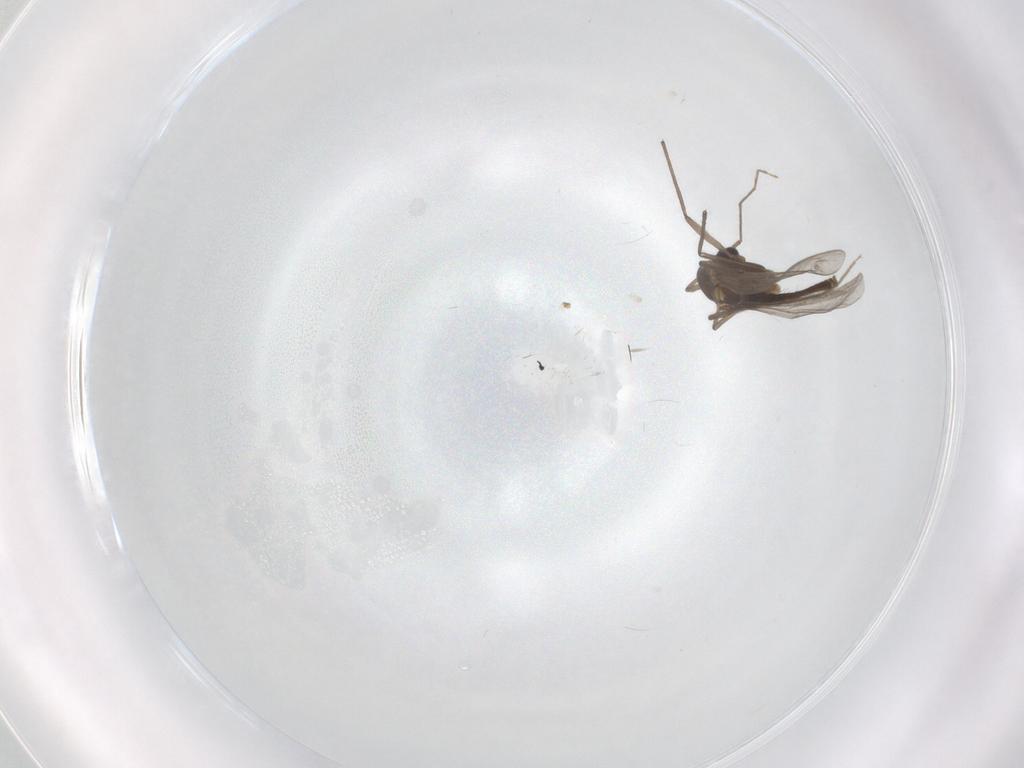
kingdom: Animalia
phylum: Arthropoda
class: Insecta
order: Diptera
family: Chironomidae
